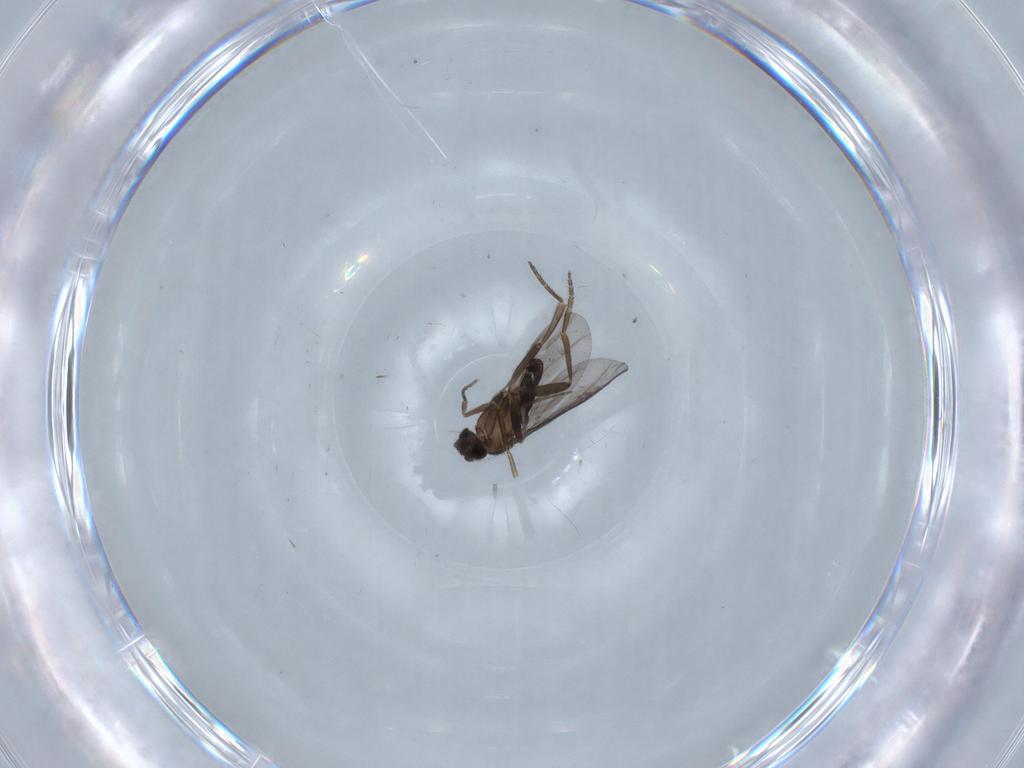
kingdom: Animalia
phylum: Arthropoda
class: Insecta
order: Diptera
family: Phoridae
